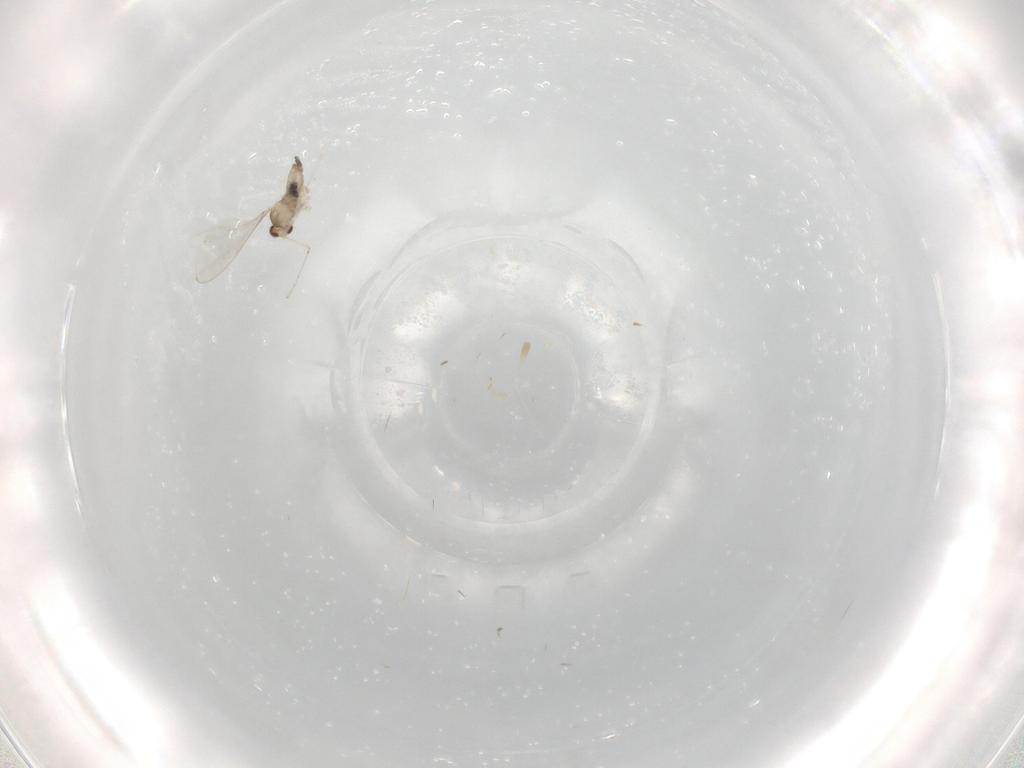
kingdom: Animalia
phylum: Arthropoda
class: Insecta
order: Diptera
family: Cecidomyiidae
